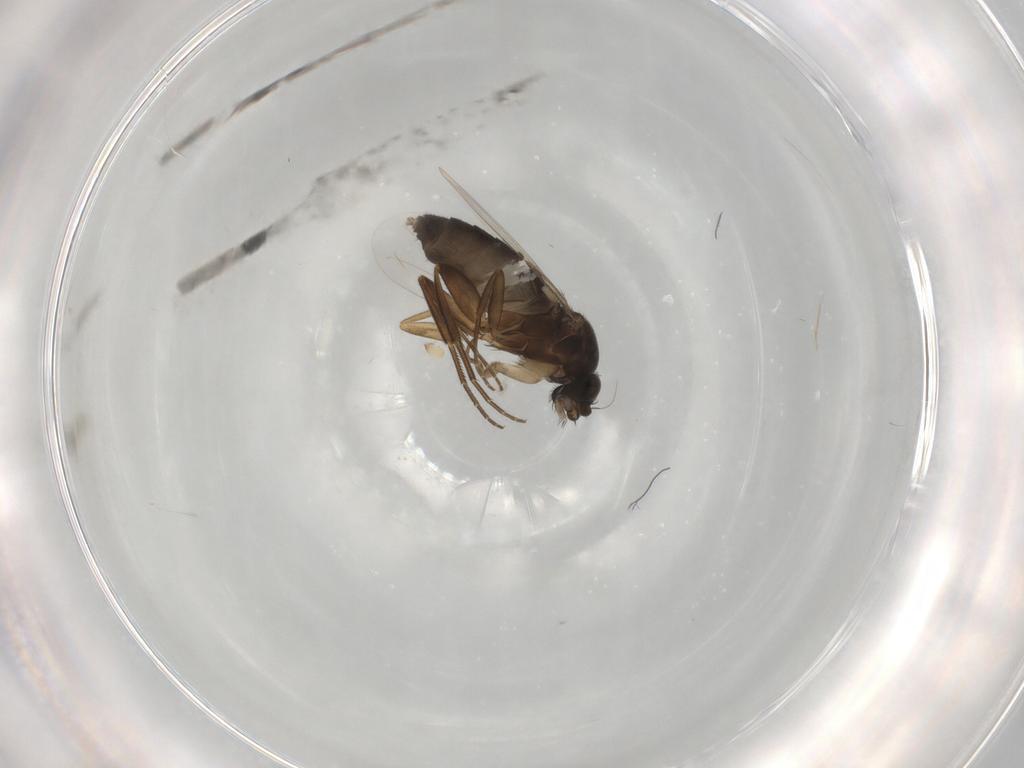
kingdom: Animalia
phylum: Arthropoda
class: Insecta
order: Diptera
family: Phoridae
